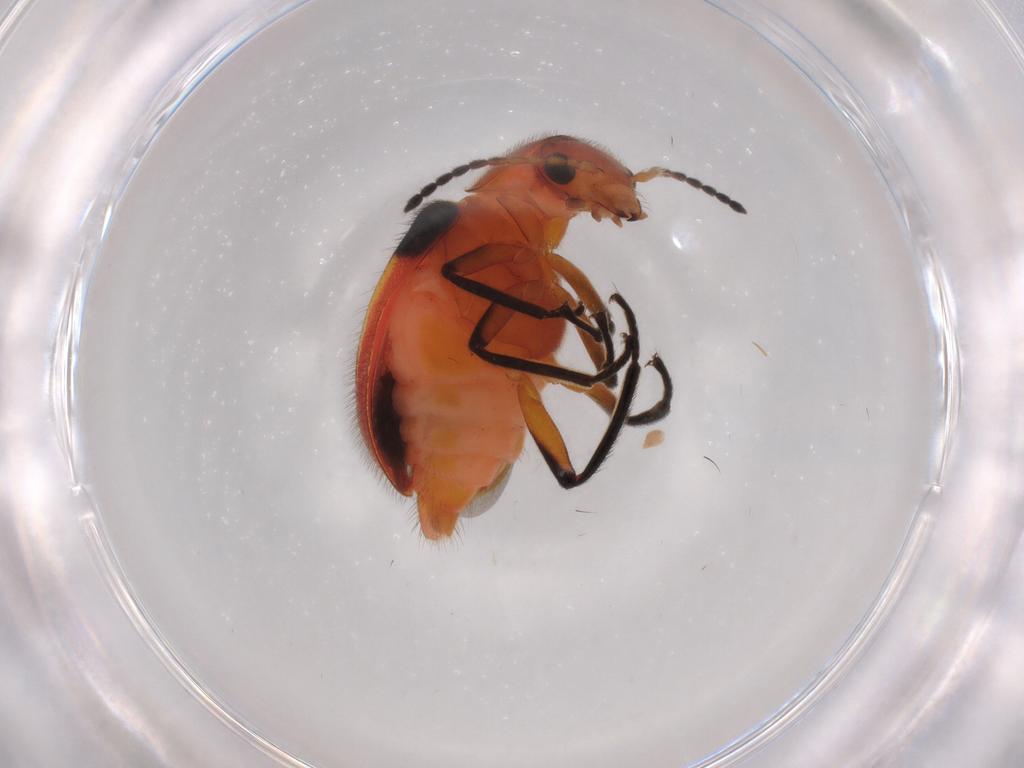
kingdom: Animalia
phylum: Arthropoda
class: Insecta
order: Coleoptera
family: Melyridae
